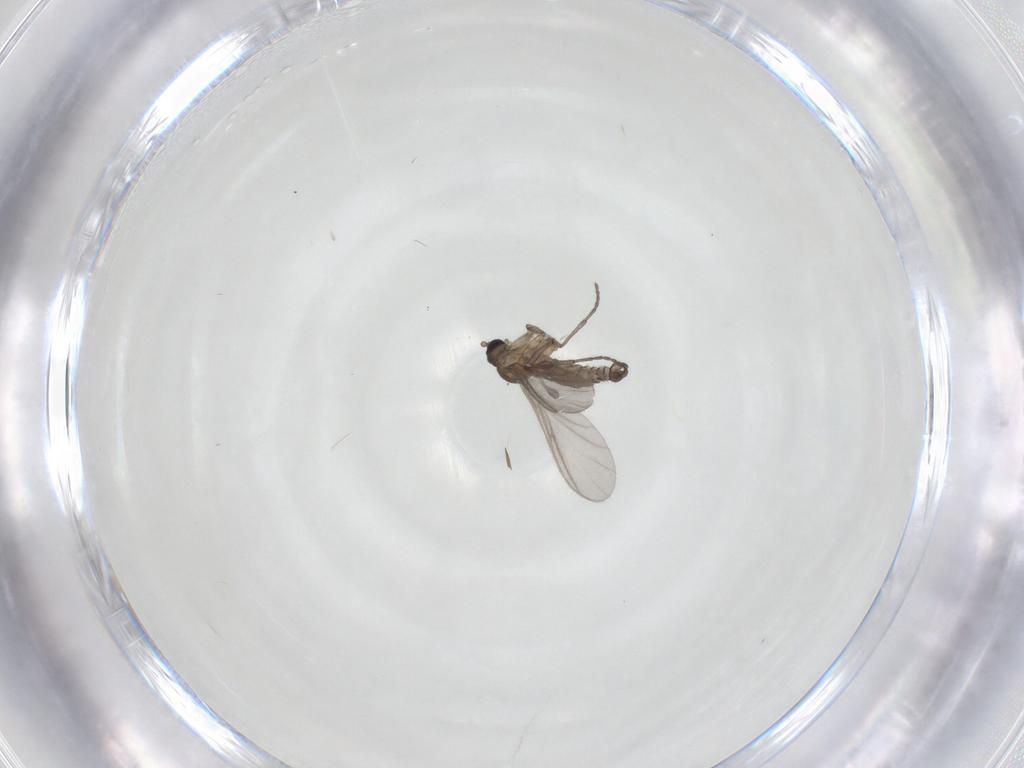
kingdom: Animalia
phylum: Arthropoda
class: Insecta
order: Diptera
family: Sciaridae
